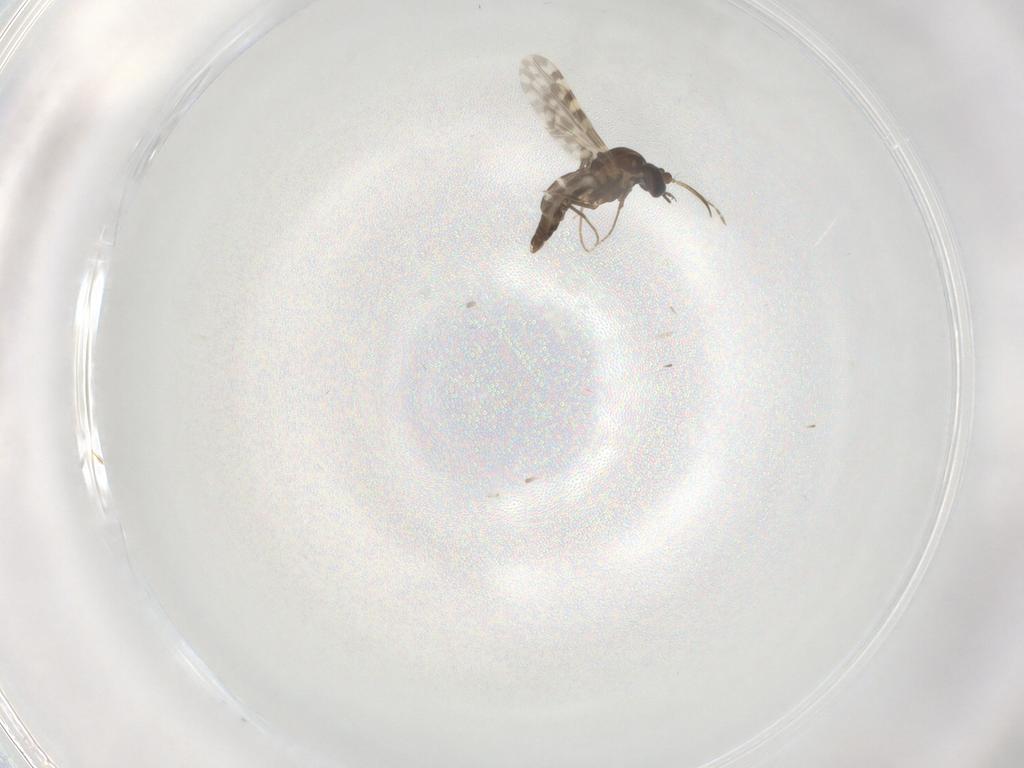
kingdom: Animalia
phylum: Arthropoda
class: Insecta
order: Diptera
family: Ceratopogonidae
